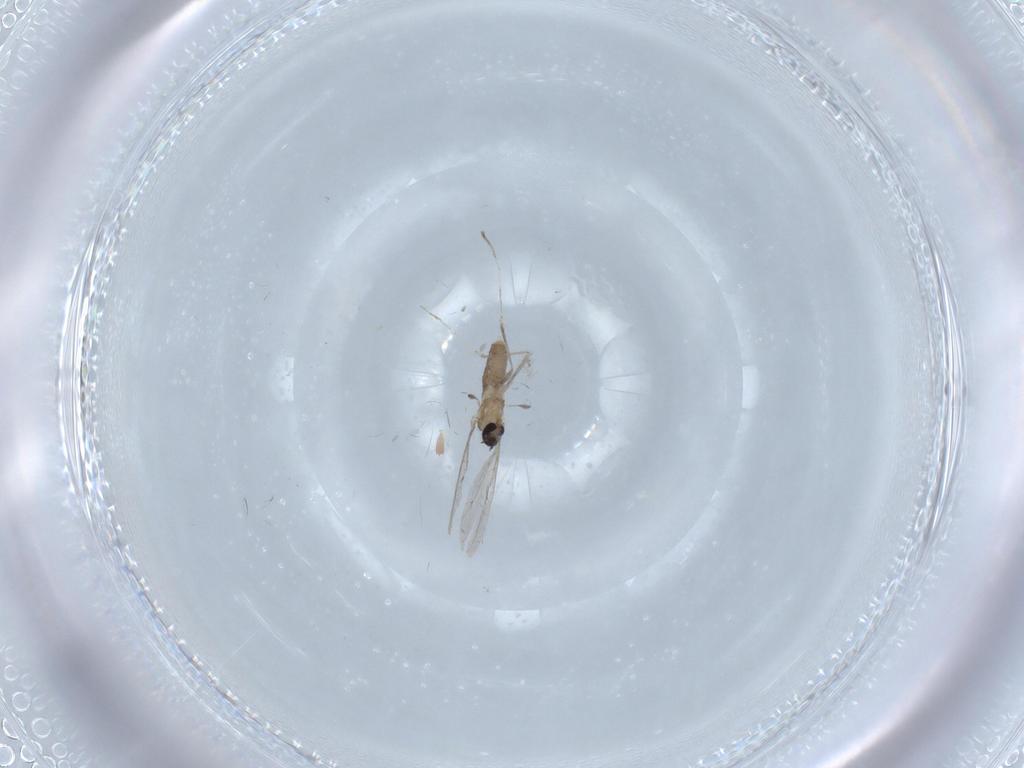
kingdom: Animalia
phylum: Arthropoda
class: Insecta
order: Diptera
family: Cecidomyiidae
